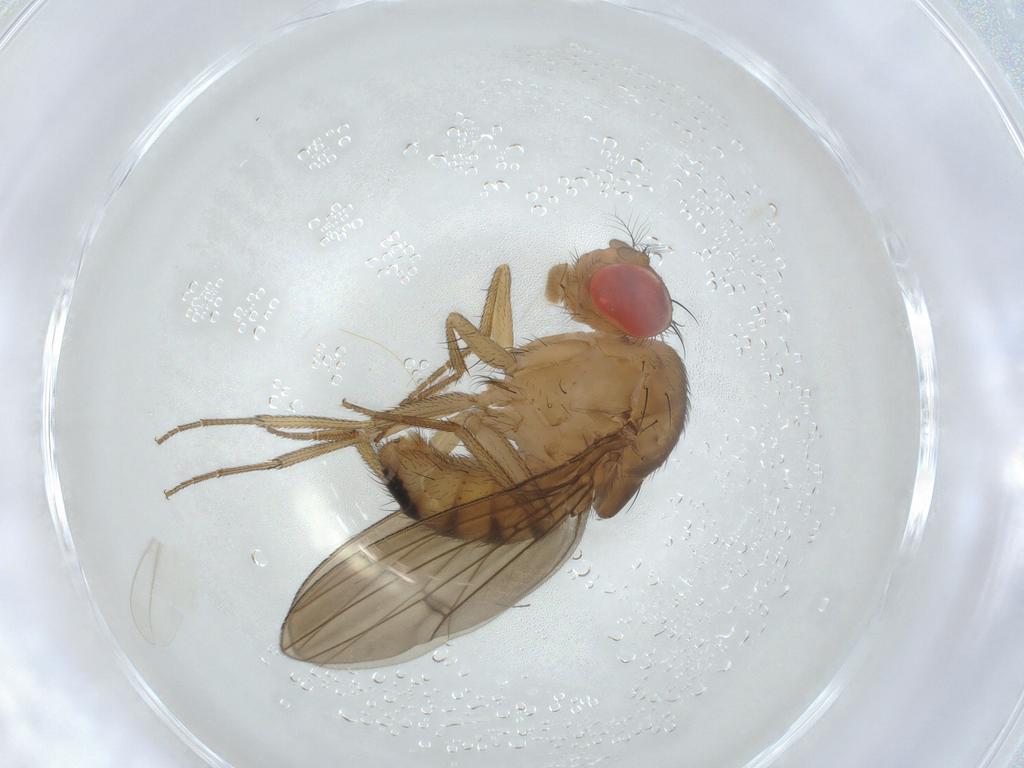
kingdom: Animalia
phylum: Arthropoda
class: Insecta
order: Diptera
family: Drosophilidae
